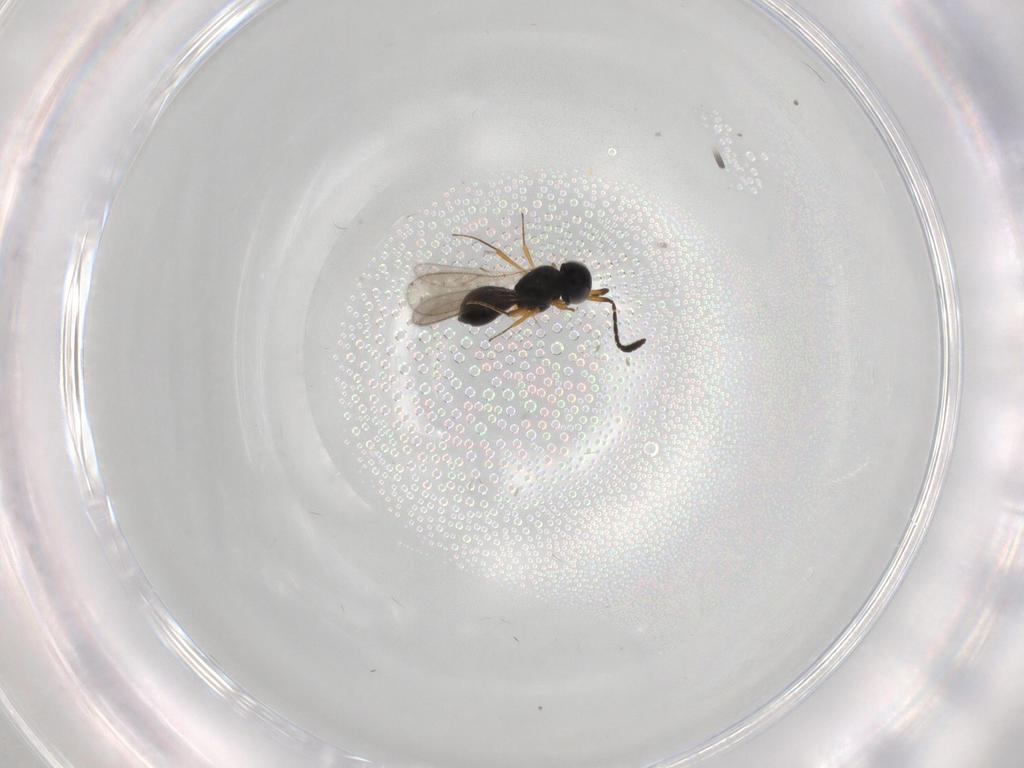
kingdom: Animalia
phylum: Arthropoda
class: Insecta
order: Hymenoptera
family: Scelionidae
